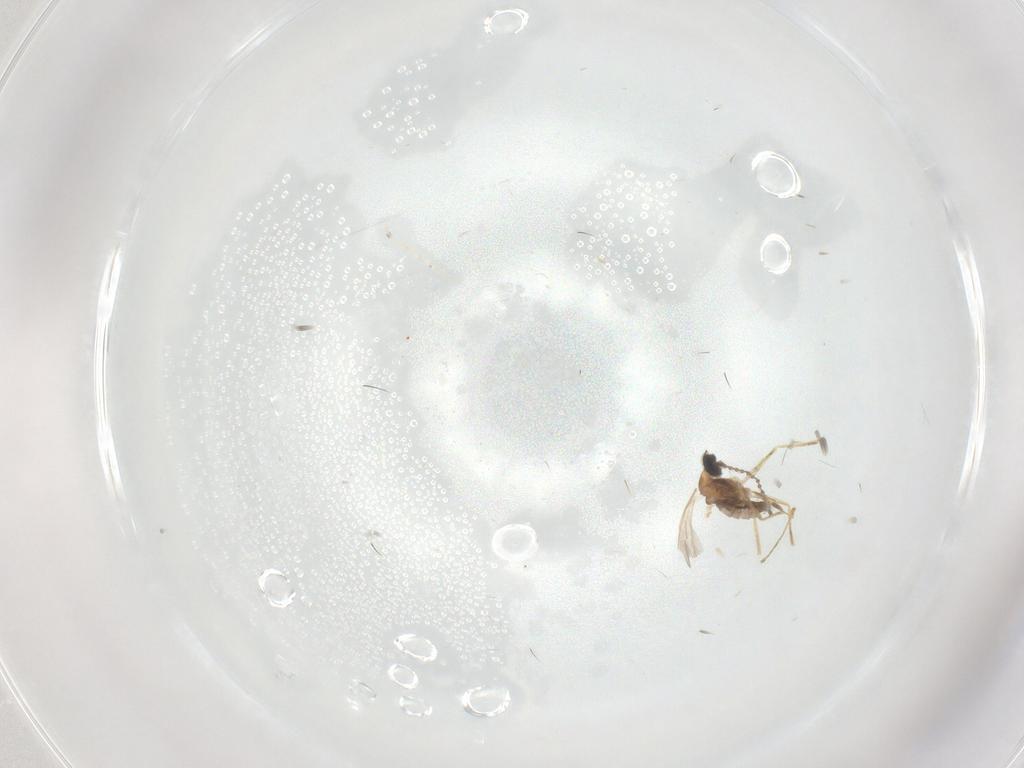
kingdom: Animalia
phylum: Arthropoda
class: Insecta
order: Diptera
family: Cecidomyiidae
